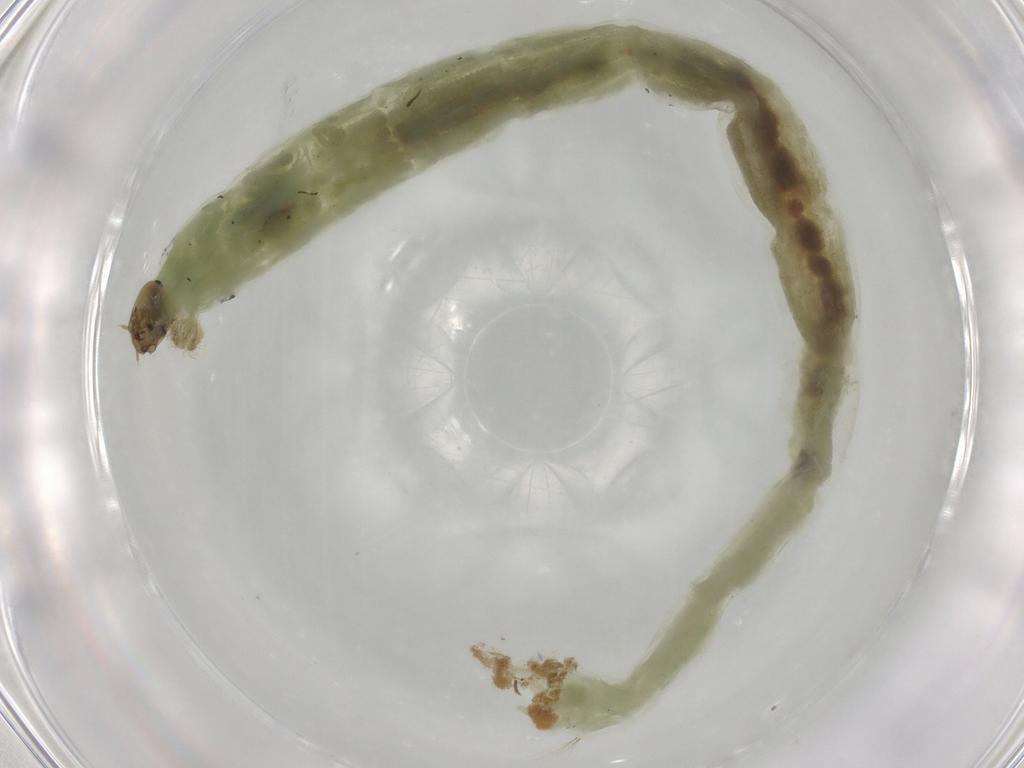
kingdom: Animalia
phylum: Arthropoda
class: Insecta
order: Diptera
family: Chironomidae
